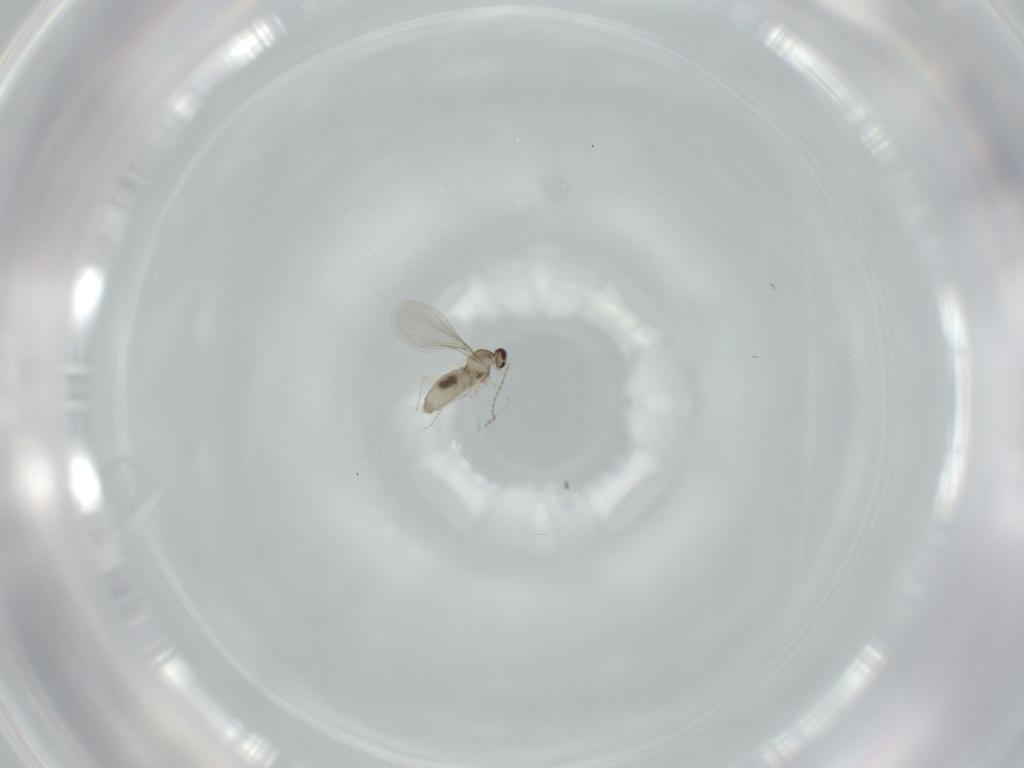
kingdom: Animalia
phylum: Arthropoda
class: Insecta
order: Diptera
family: Cecidomyiidae
